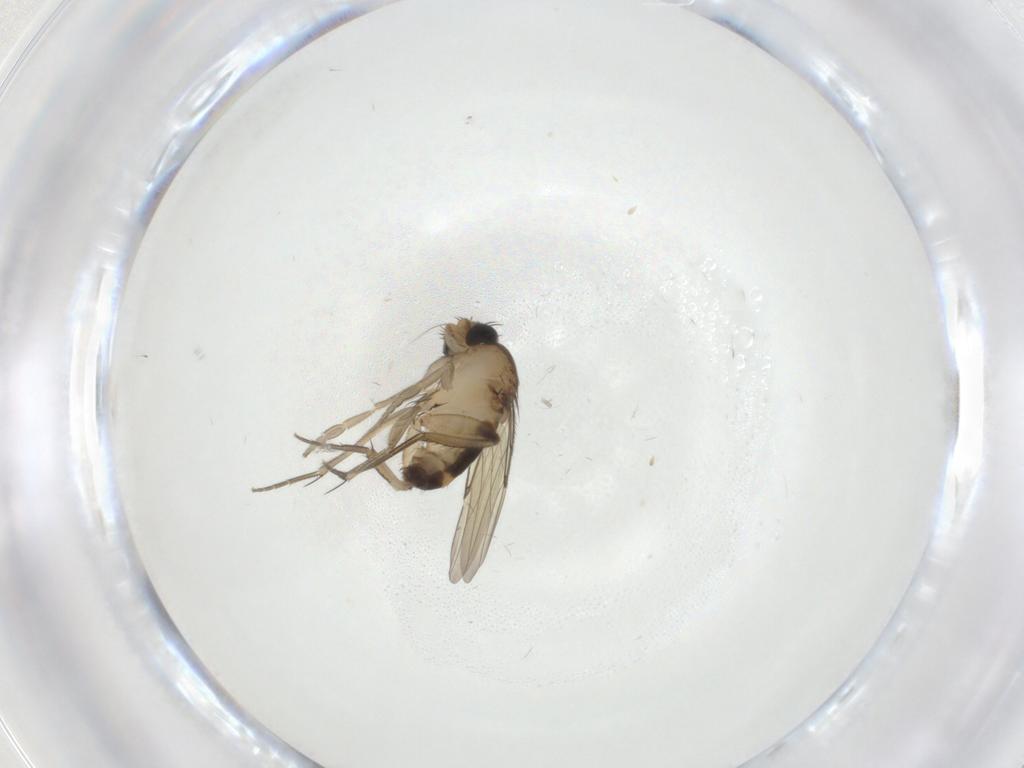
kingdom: Animalia
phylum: Arthropoda
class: Insecta
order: Diptera
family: Phoridae
